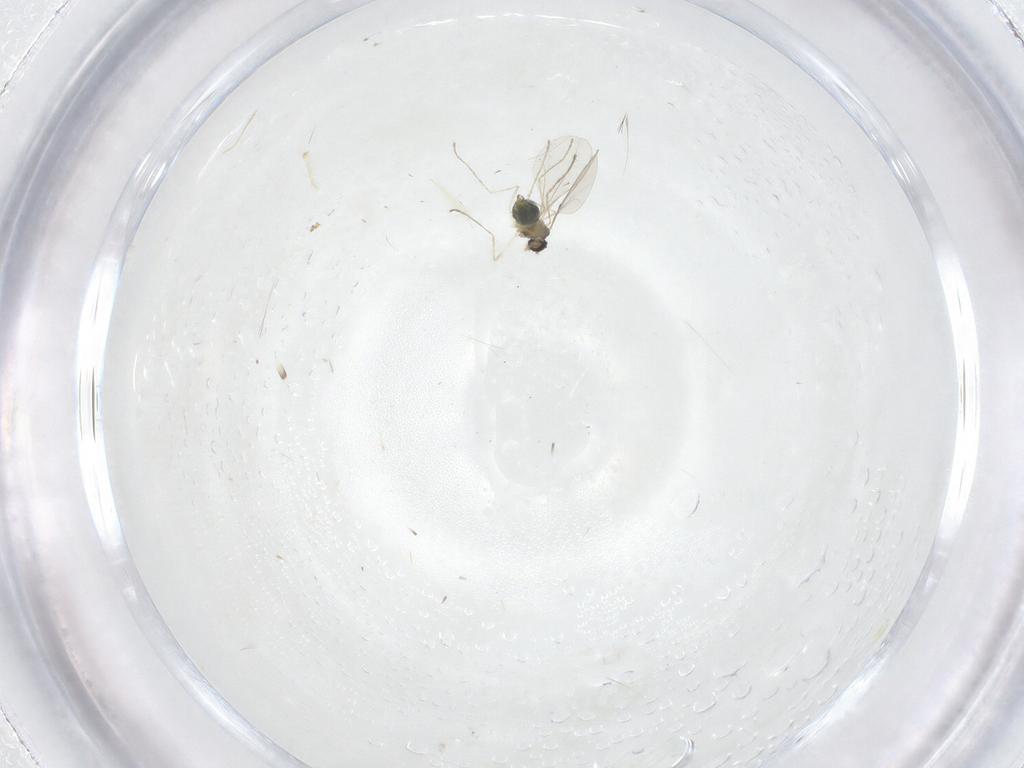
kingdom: Animalia
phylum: Arthropoda
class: Insecta
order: Diptera
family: Cecidomyiidae
